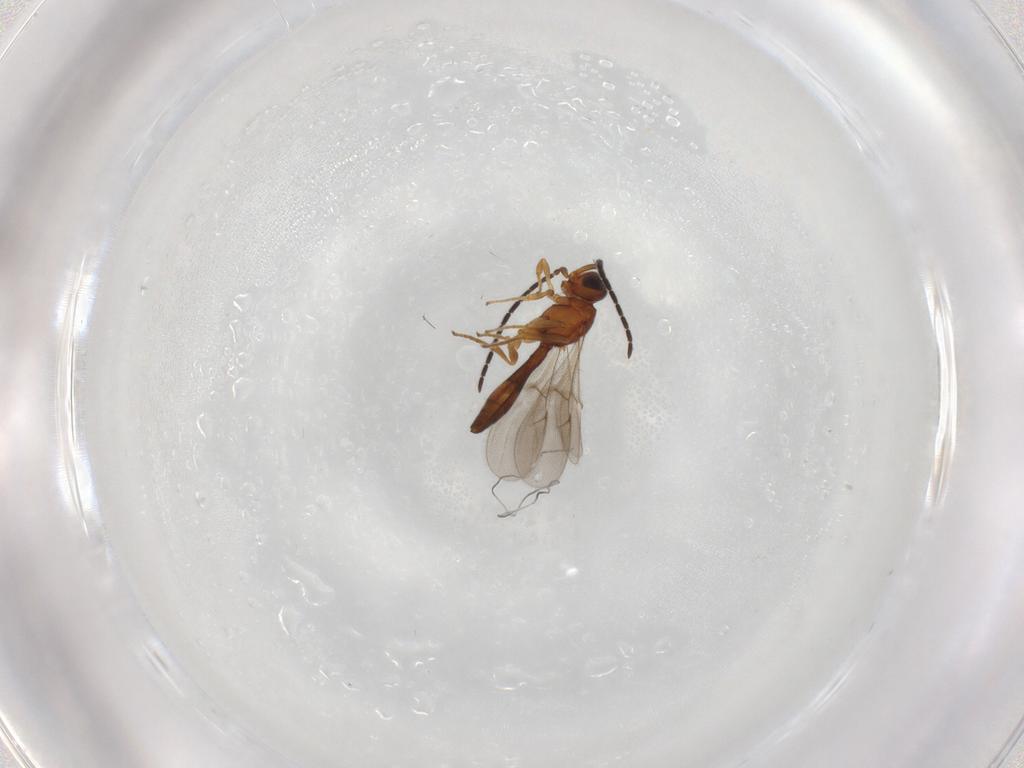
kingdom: Animalia
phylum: Arthropoda
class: Insecta
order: Hymenoptera
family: Scelionidae
